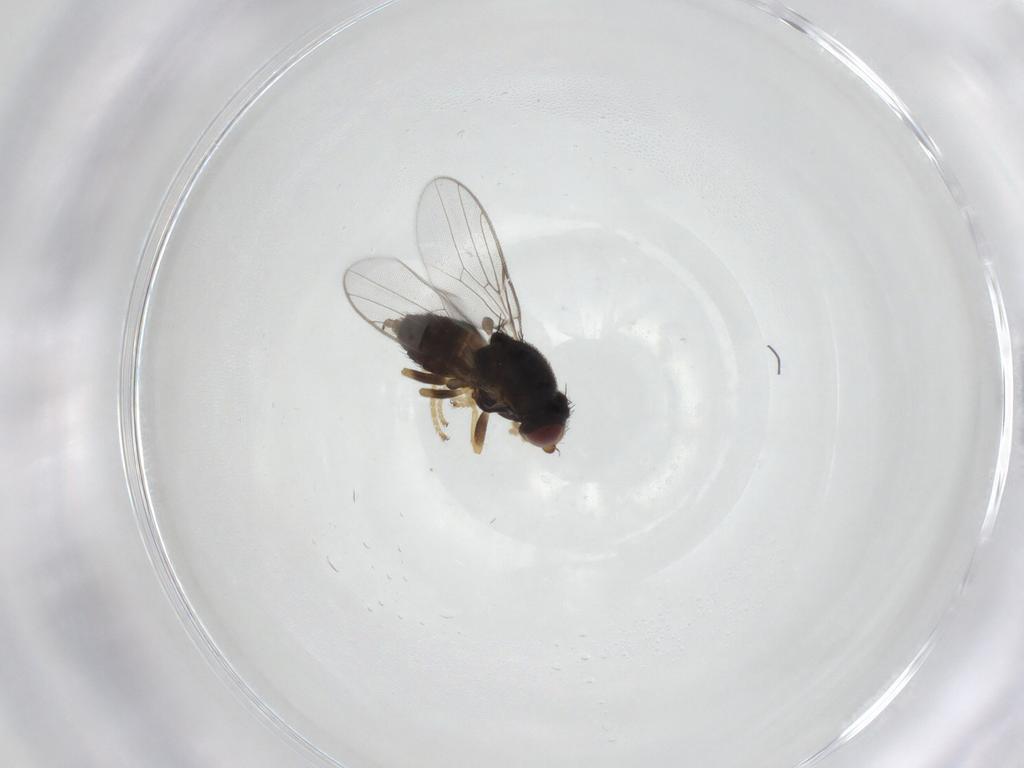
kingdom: Animalia
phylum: Arthropoda
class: Insecta
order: Diptera
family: Sciaridae
